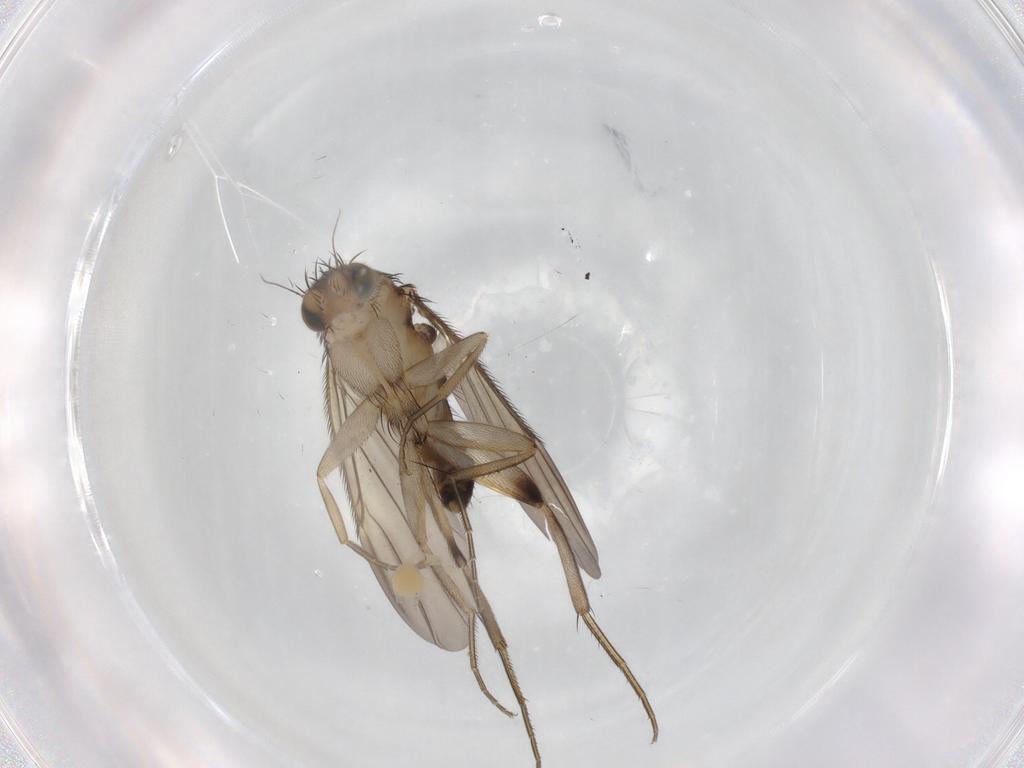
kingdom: Animalia
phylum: Arthropoda
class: Insecta
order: Diptera
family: Phoridae
